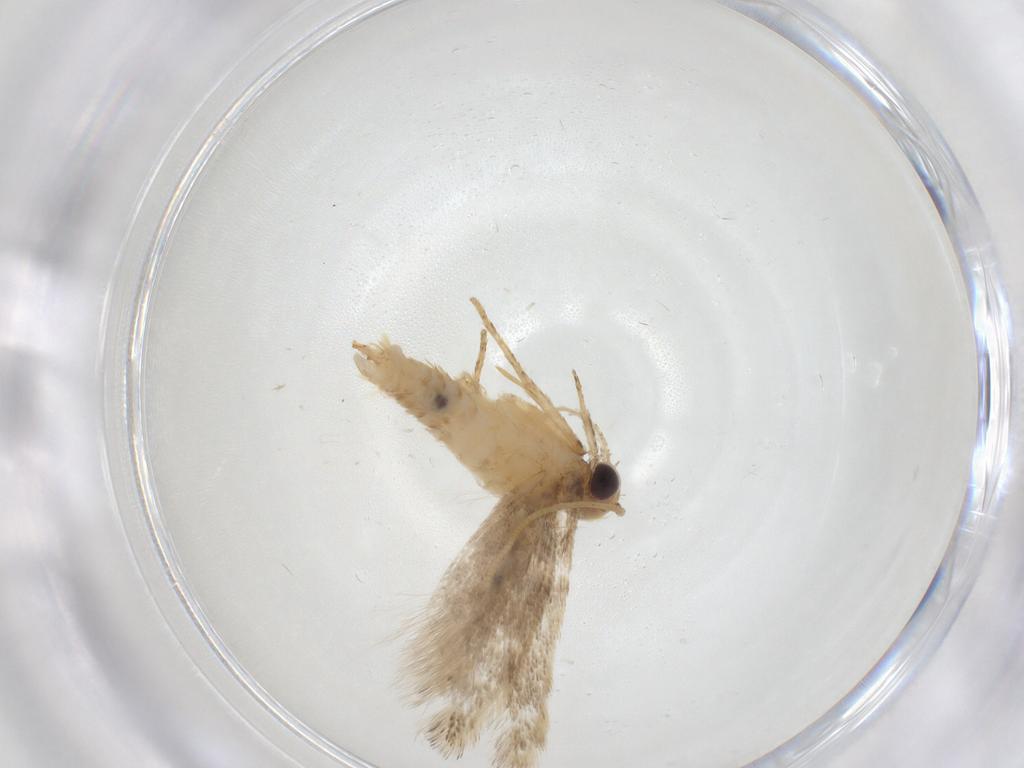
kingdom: Animalia
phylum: Arthropoda
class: Insecta
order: Lepidoptera
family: Gelechiidae
